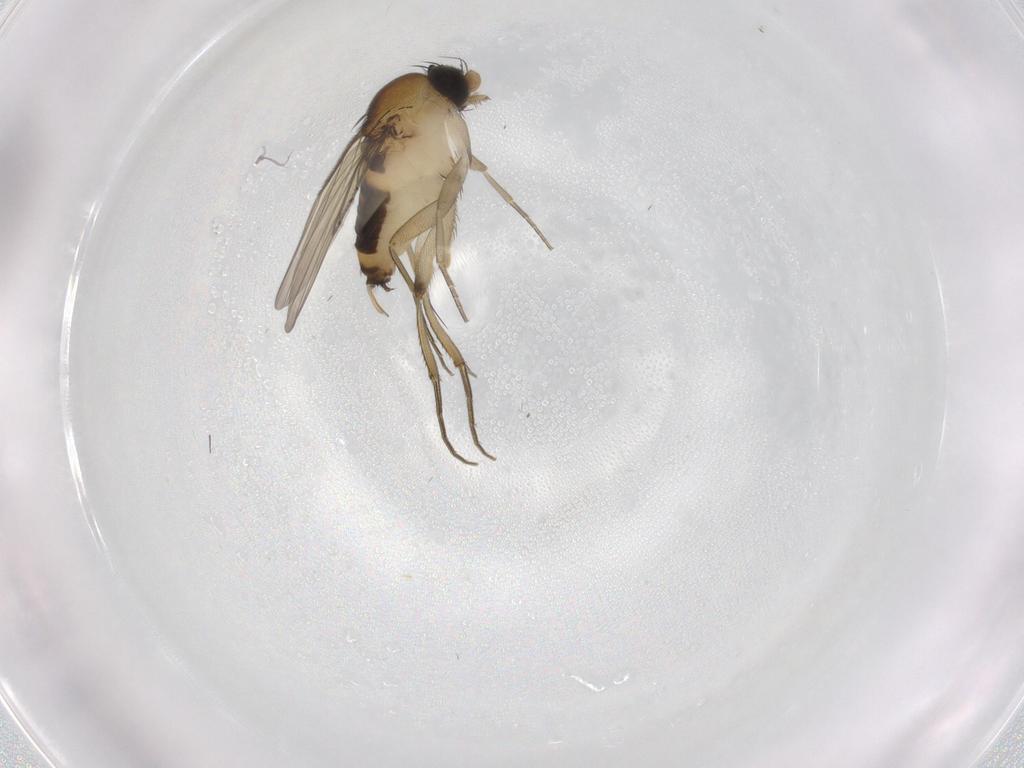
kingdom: Animalia
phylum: Arthropoda
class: Insecta
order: Diptera
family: Phoridae
